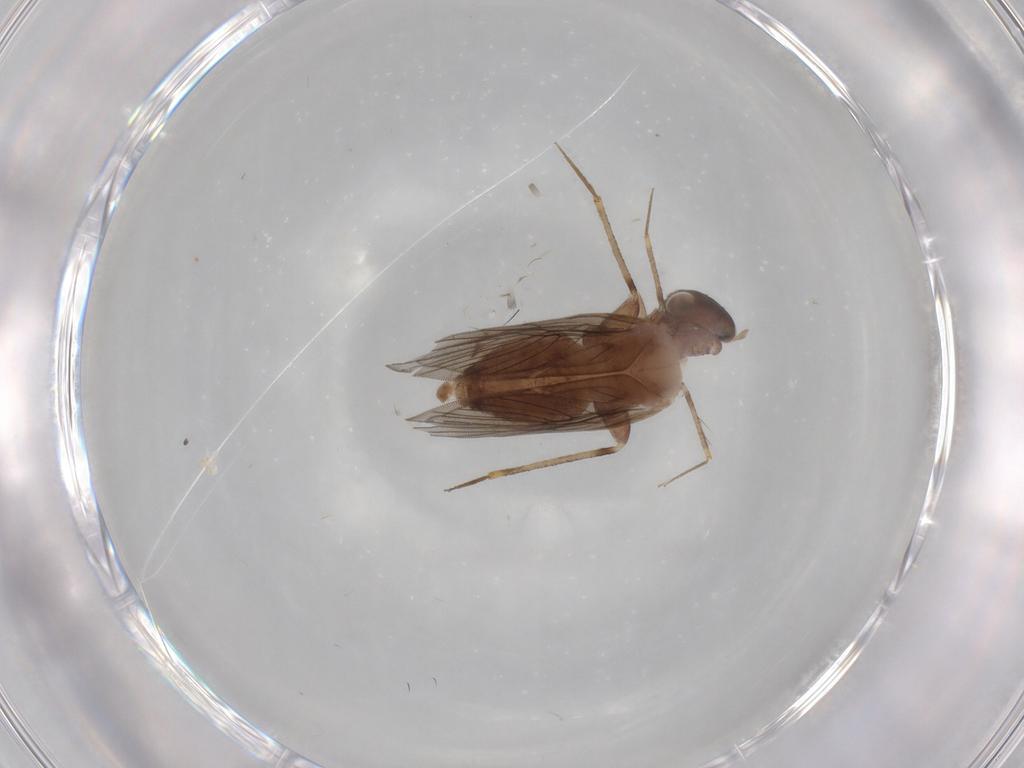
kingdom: Animalia
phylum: Arthropoda
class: Insecta
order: Psocodea
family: Lepidopsocidae
